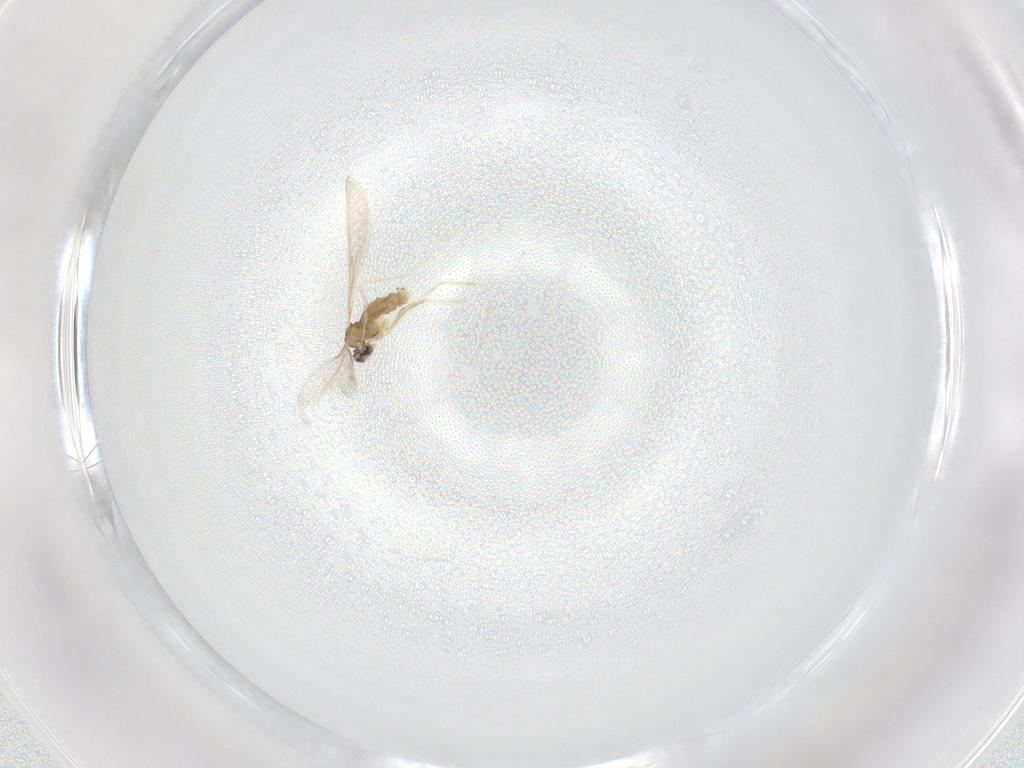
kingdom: Animalia
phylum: Arthropoda
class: Insecta
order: Diptera
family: Cecidomyiidae
